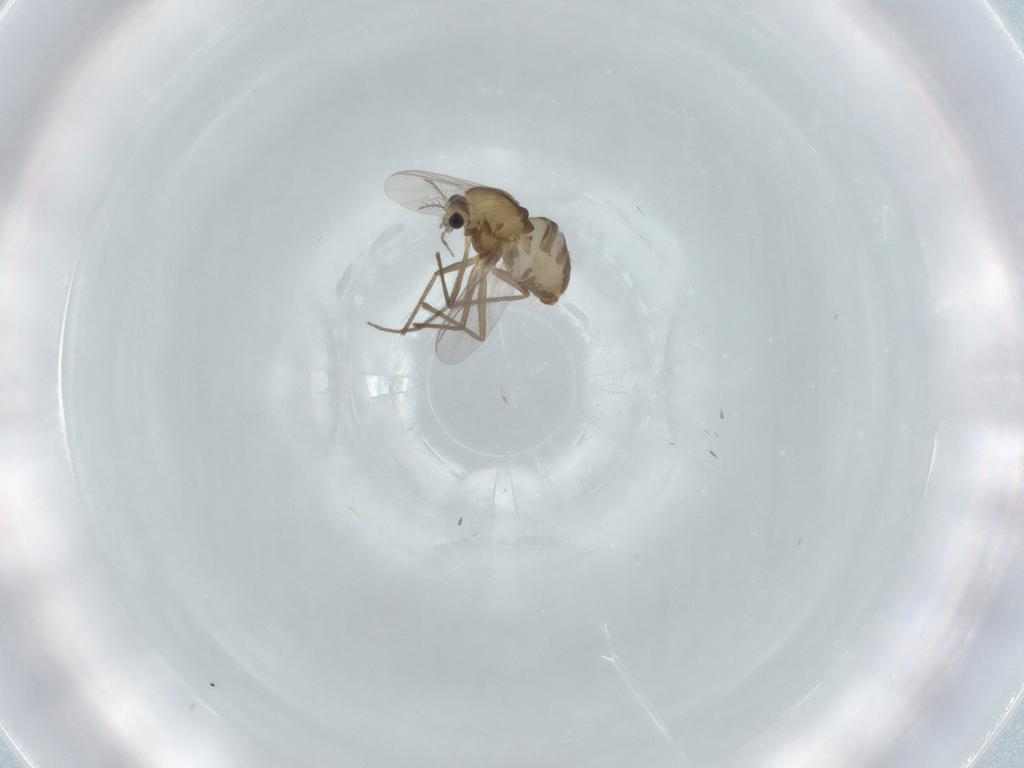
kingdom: Animalia
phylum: Arthropoda
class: Insecta
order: Diptera
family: Chironomidae
